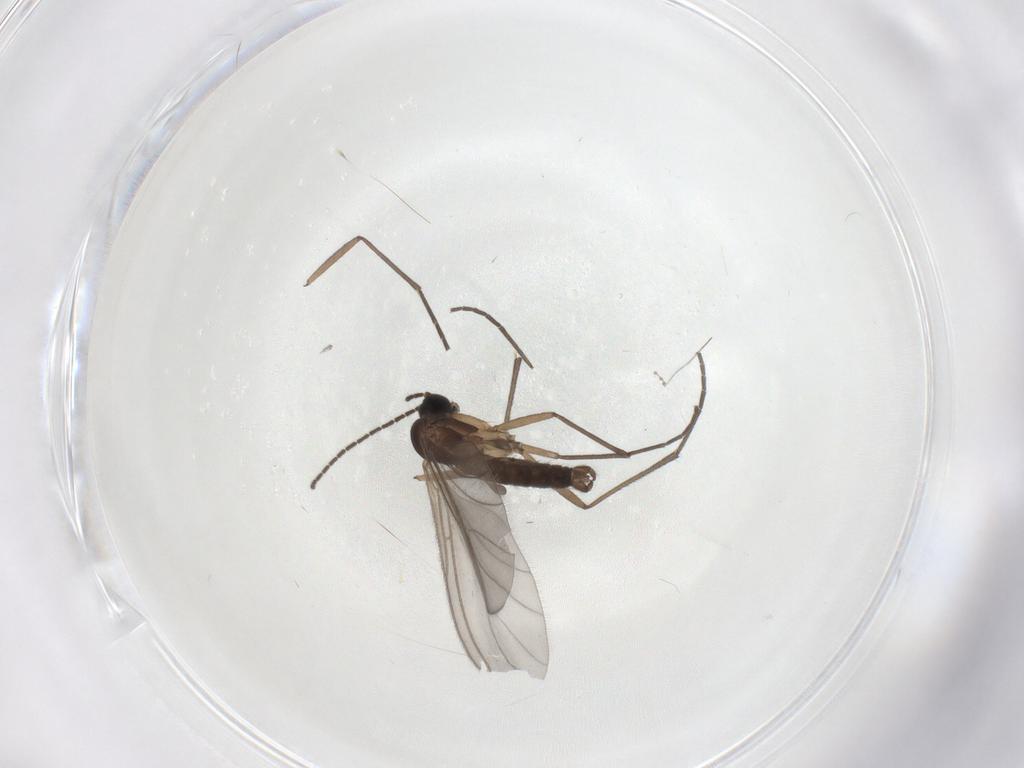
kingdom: Animalia
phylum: Arthropoda
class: Insecta
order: Diptera
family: Sciaridae
